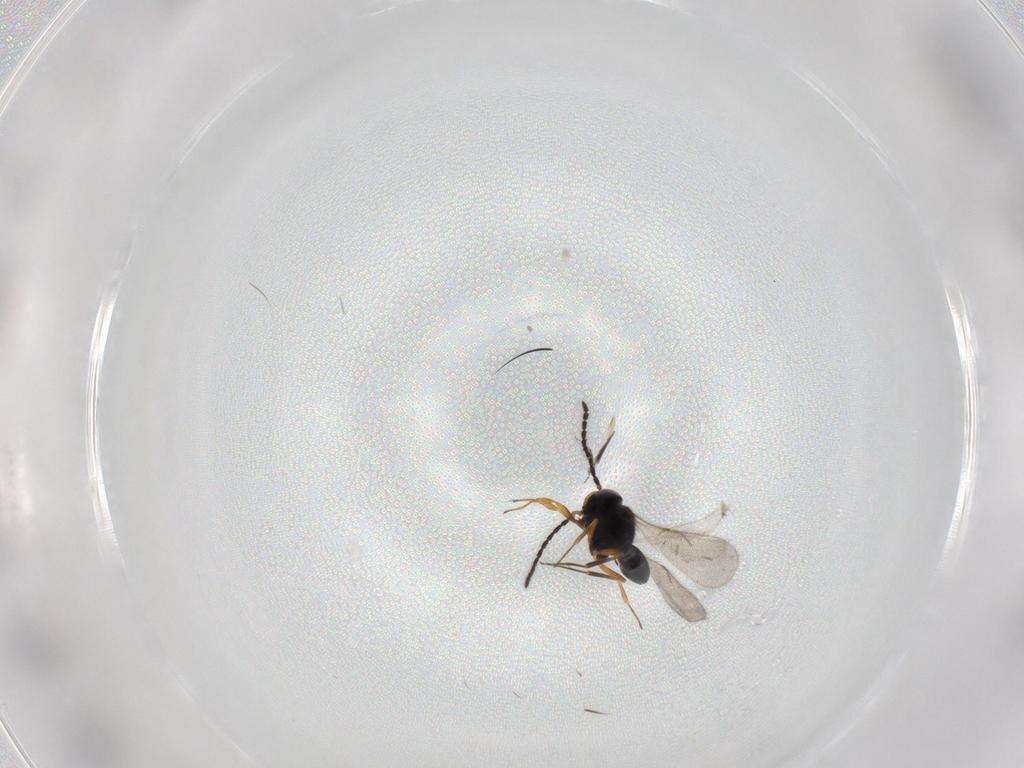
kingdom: Animalia
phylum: Arthropoda
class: Insecta
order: Hymenoptera
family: Scelionidae
